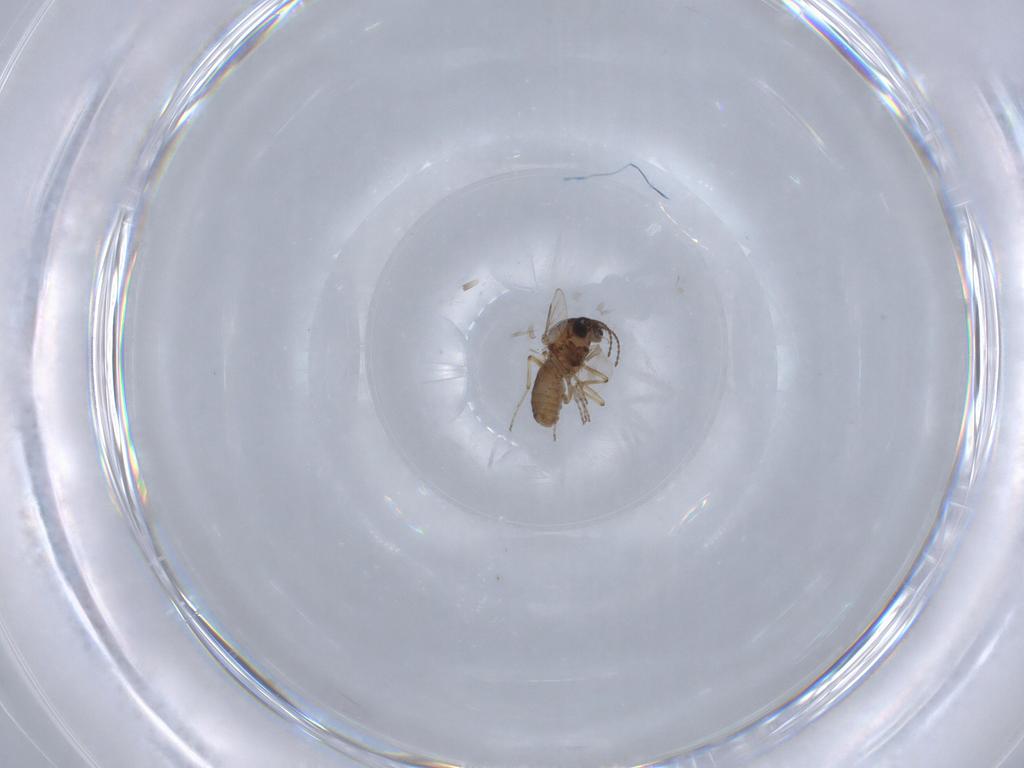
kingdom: Animalia
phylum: Arthropoda
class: Insecta
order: Diptera
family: Ceratopogonidae
